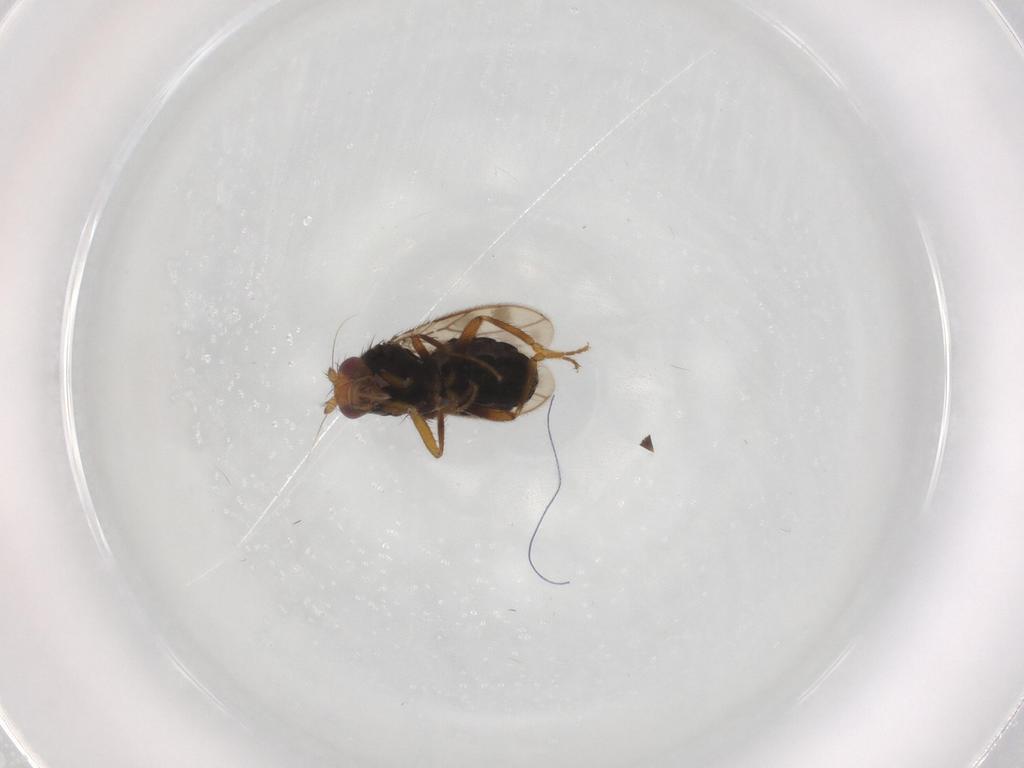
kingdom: Animalia
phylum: Arthropoda
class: Insecta
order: Diptera
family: Sphaeroceridae
